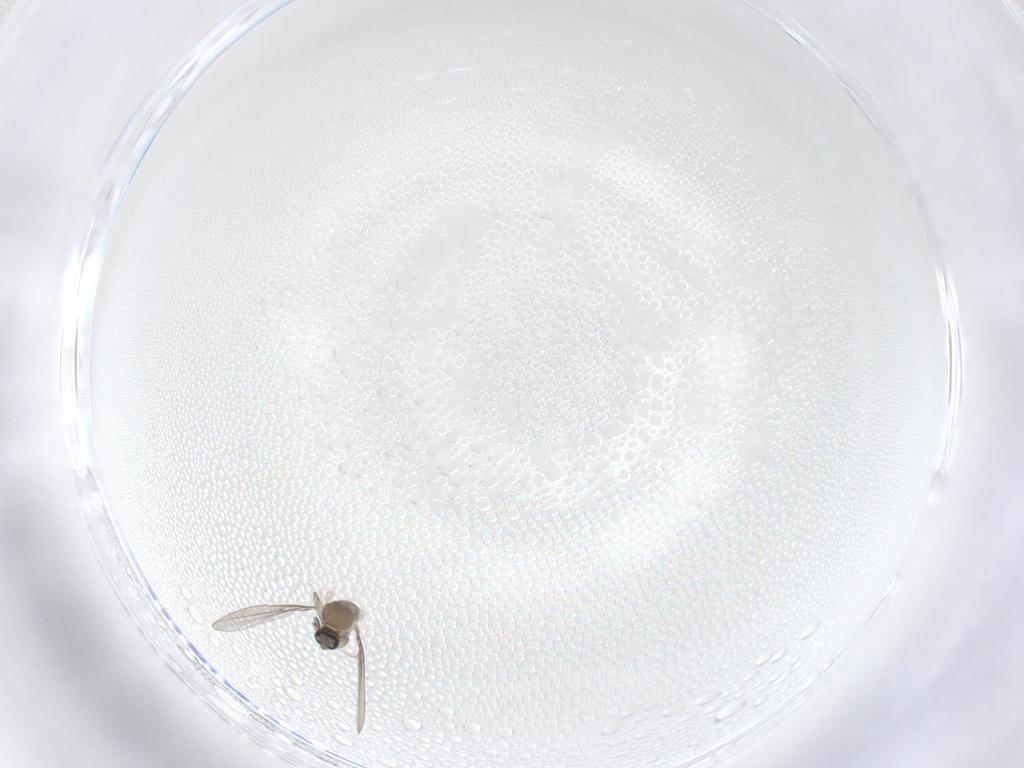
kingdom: Animalia
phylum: Arthropoda
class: Insecta
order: Diptera
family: Cecidomyiidae
